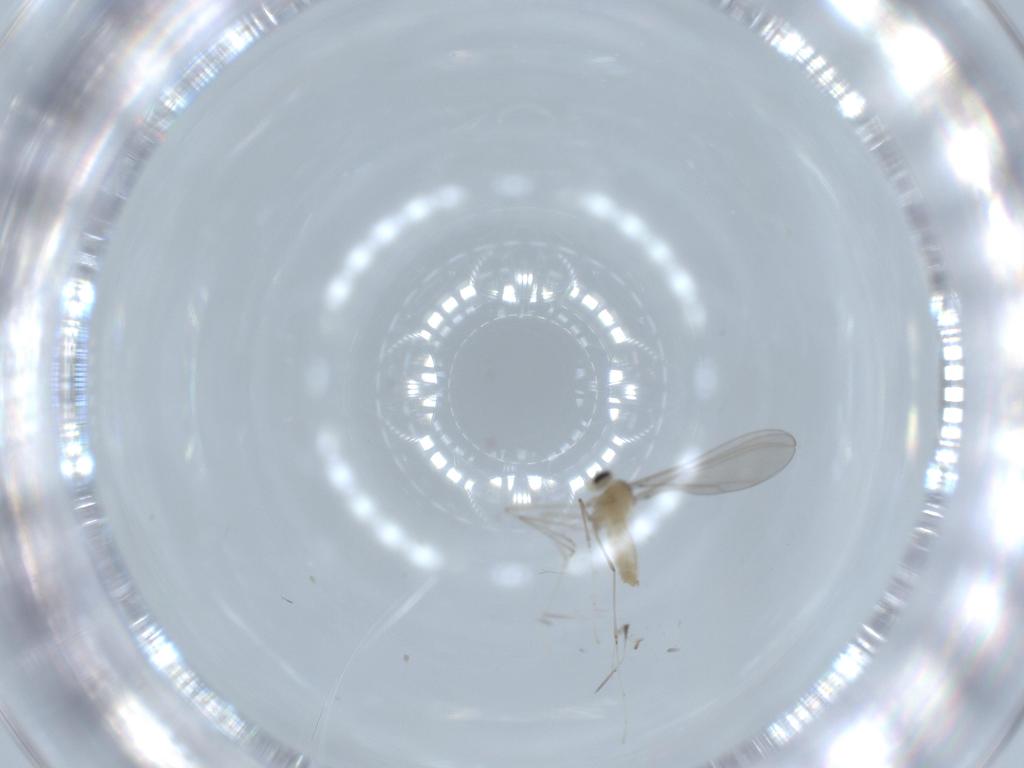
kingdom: Animalia
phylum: Arthropoda
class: Insecta
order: Diptera
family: Cecidomyiidae
